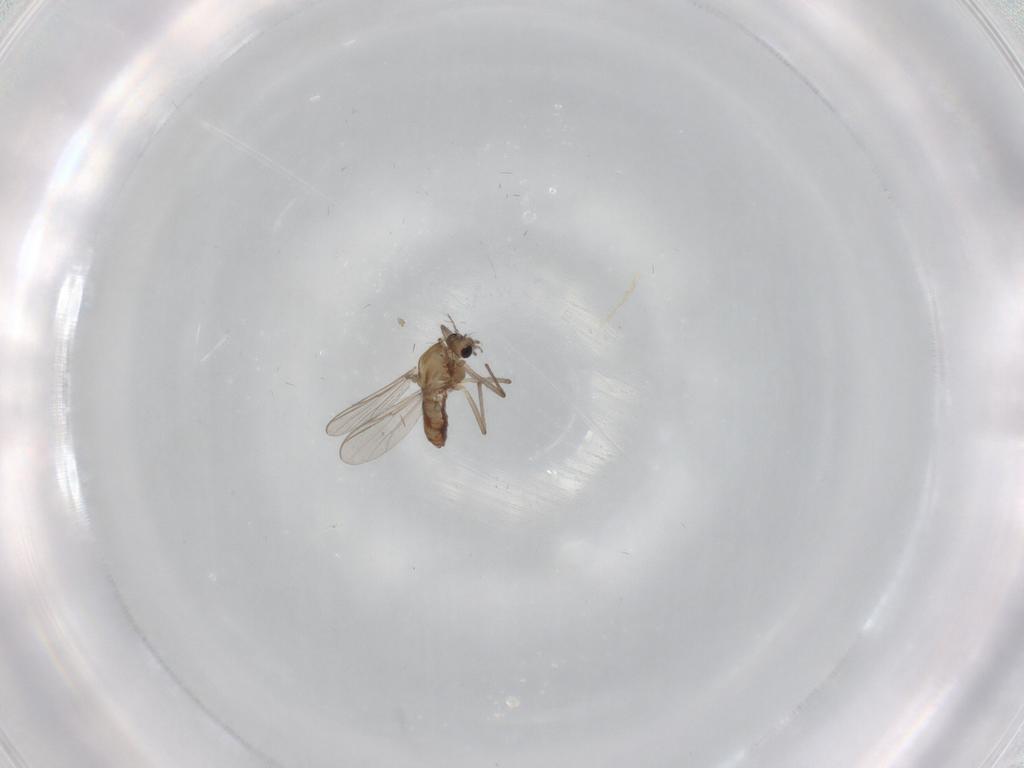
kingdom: Animalia
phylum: Arthropoda
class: Insecta
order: Diptera
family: Chironomidae
